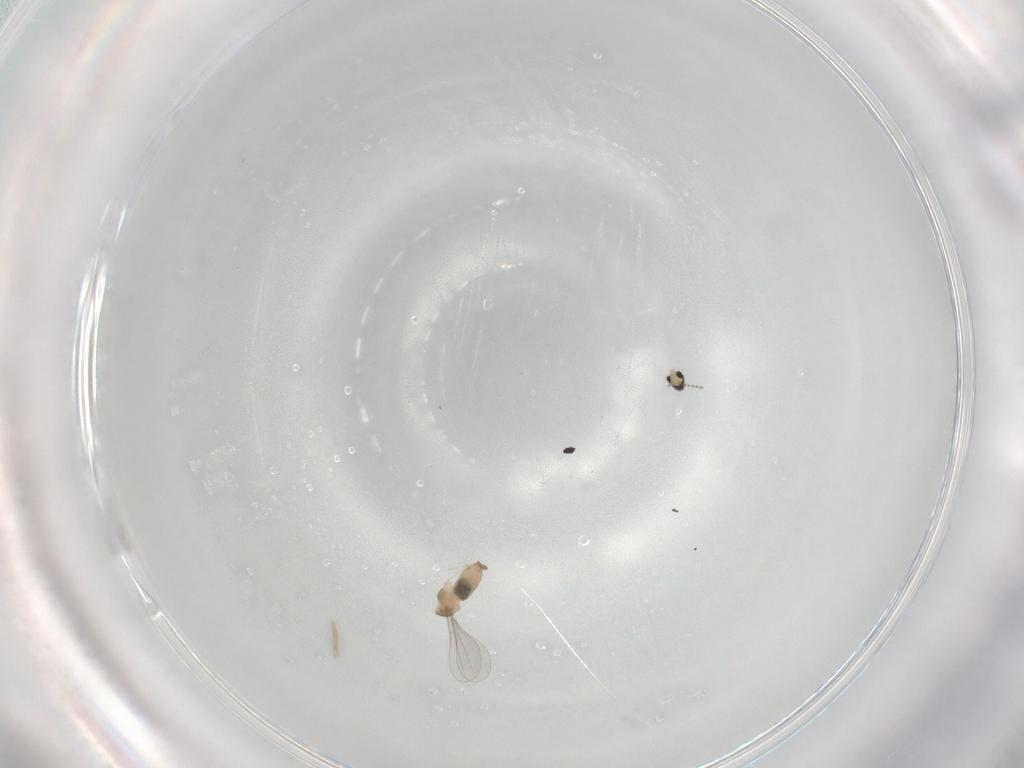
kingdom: Animalia
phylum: Arthropoda
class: Insecta
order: Diptera
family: Cecidomyiidae
